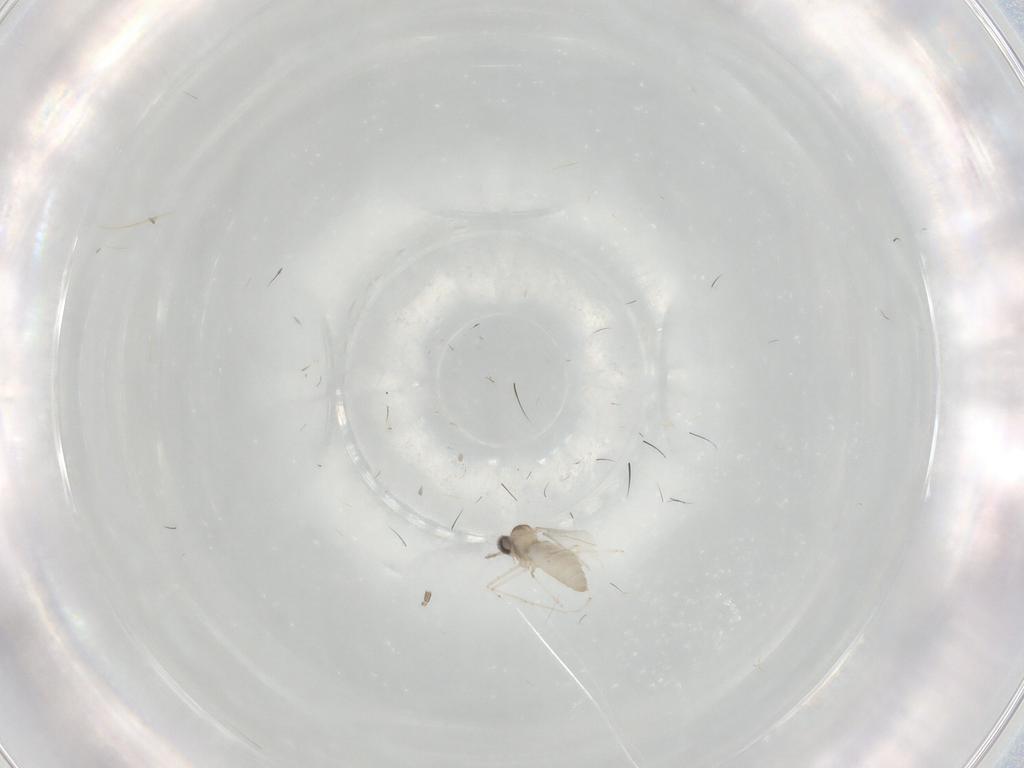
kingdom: Animalia
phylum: Arthropoda
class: Insecta
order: Diptera
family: Cecidomyiidae
